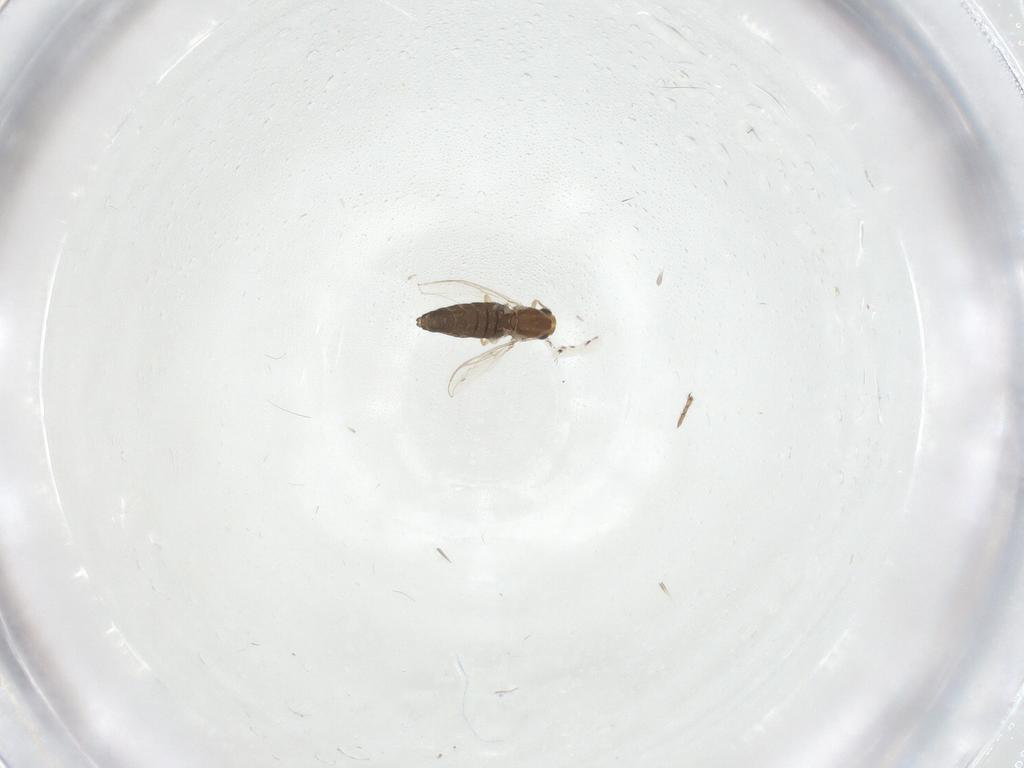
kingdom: Animalia
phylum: Arthropoda
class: Insecta
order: Diptera
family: Chironomidae
